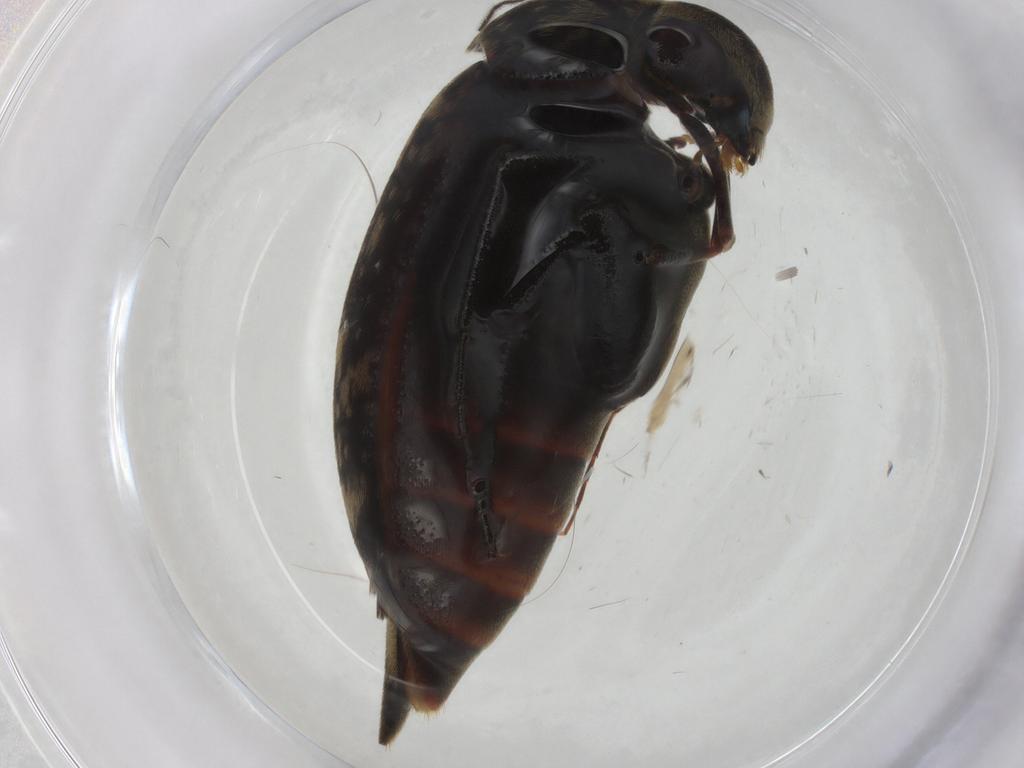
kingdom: Animalia
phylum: Arthropoda
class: Insecta
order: Coleoptera
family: Mordellidae
